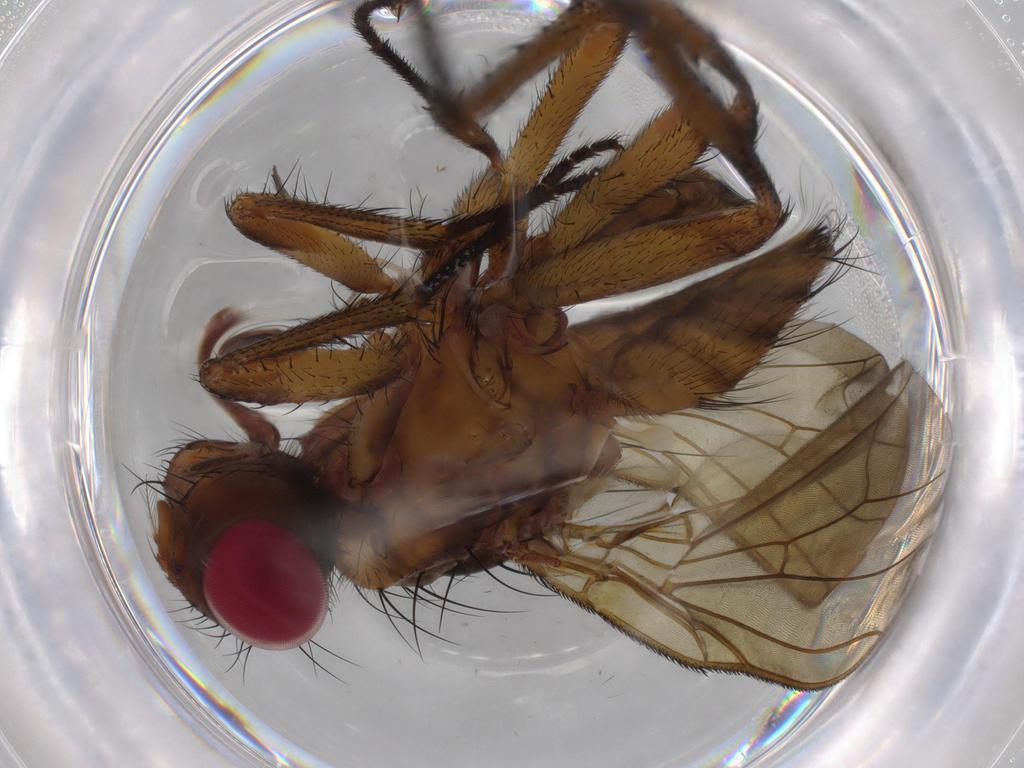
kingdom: Animalia
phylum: Arthropoda
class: Insecta
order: Diptera
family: Anthomyiidae
